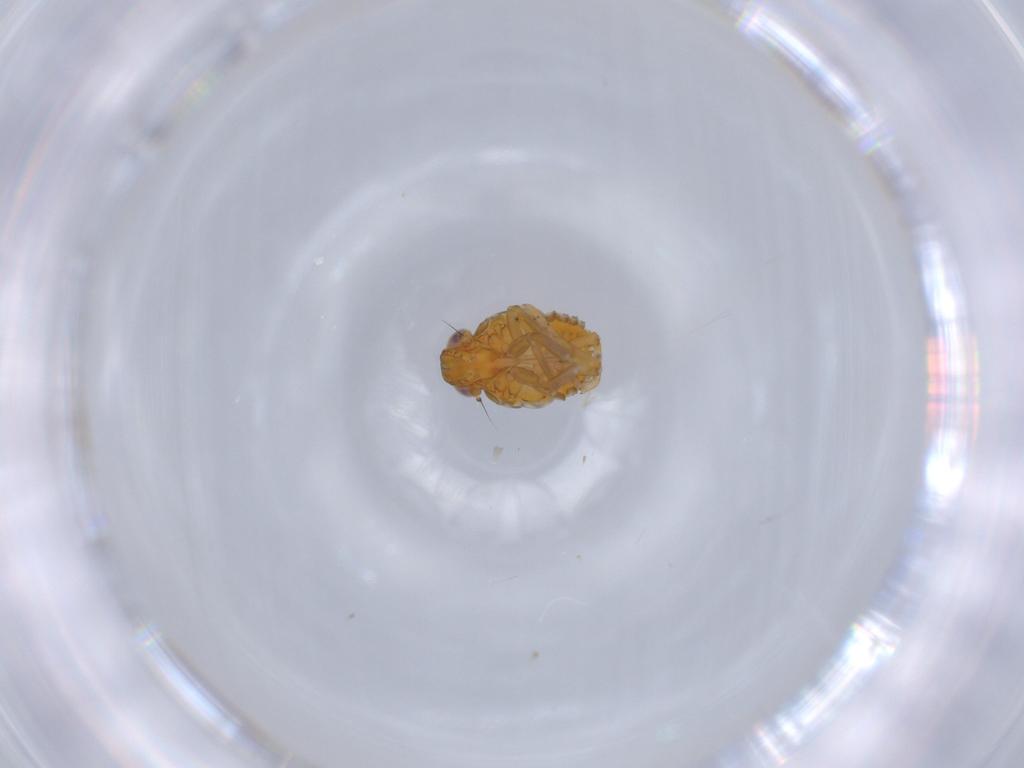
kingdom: Animalia
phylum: Arthropoda
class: Insecta
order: Hemiptera
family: Issidae
